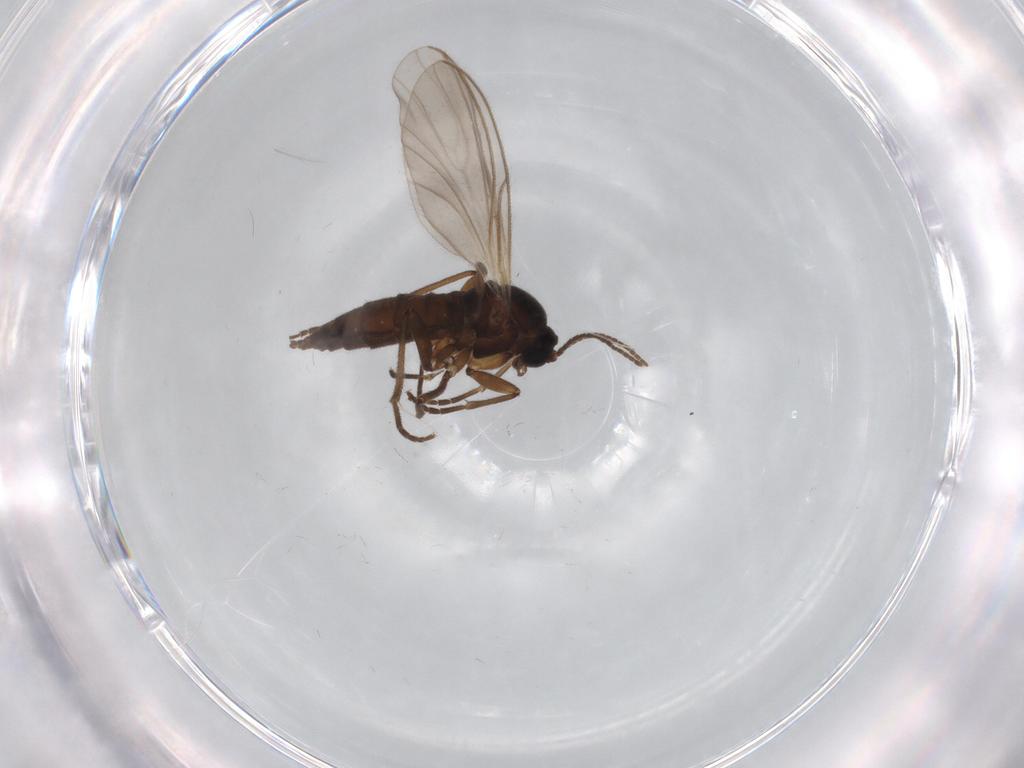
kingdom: Animalia
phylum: Arthropoda
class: Insecta
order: Diptera
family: Sciaridae
